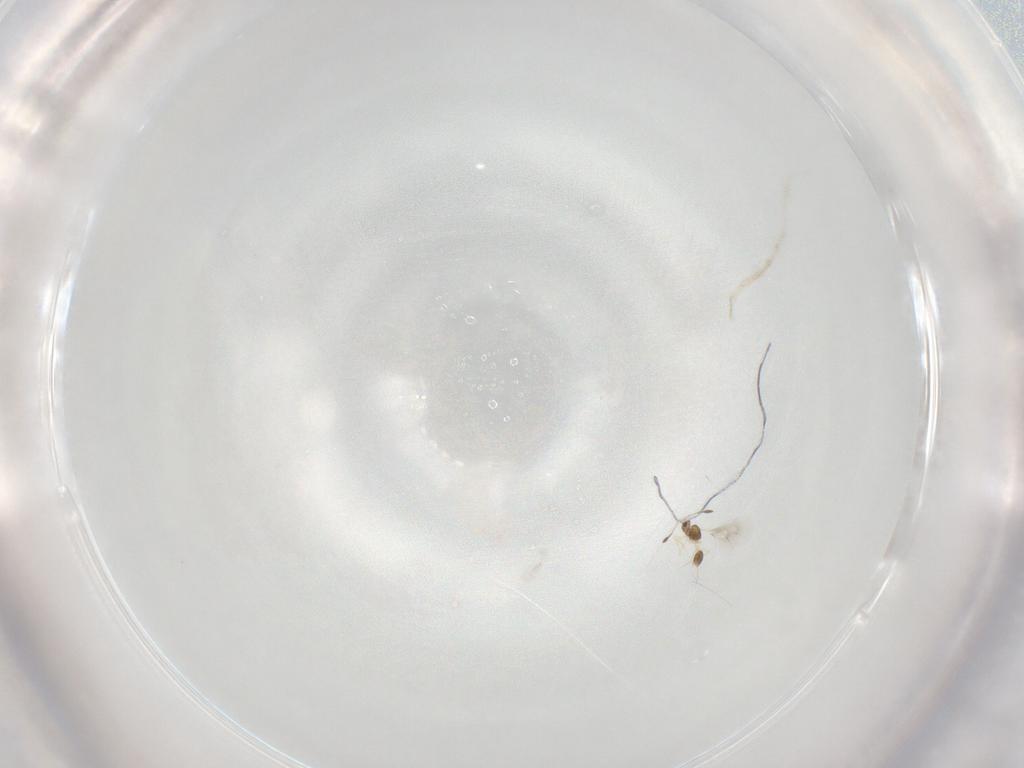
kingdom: Animalia
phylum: Arthropoda
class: Insecta
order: Hymenoptera
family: Mymarommatidae
